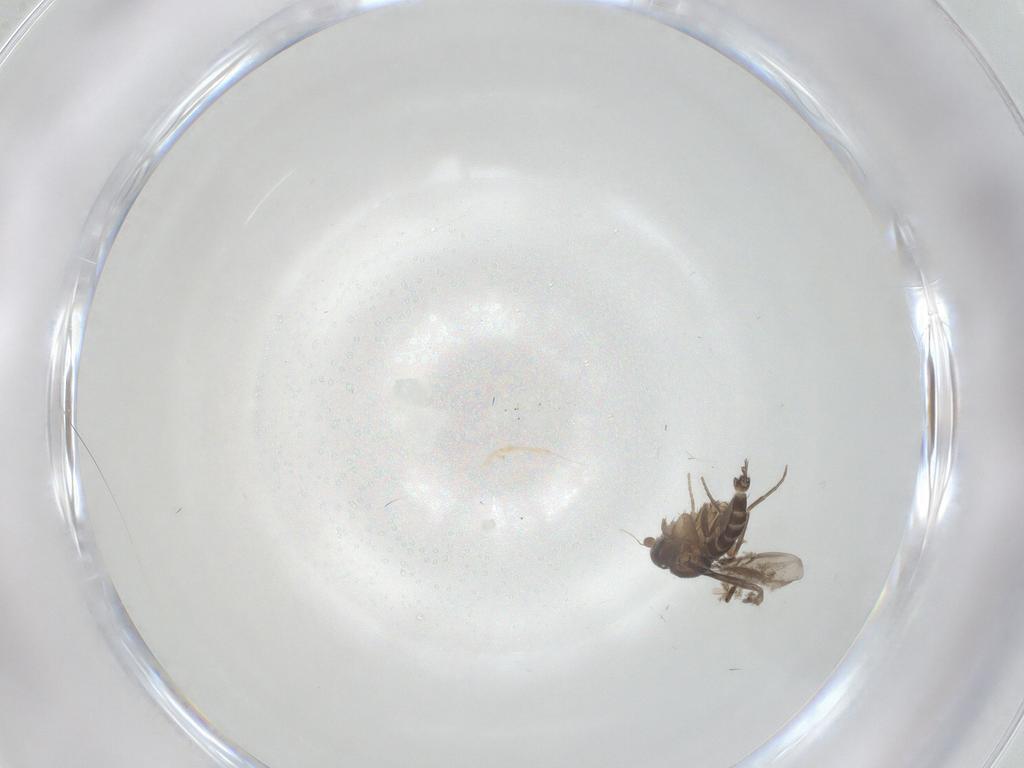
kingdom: Animalia
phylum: Arthropoda
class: Insecta
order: Diptera
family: Phoridae
